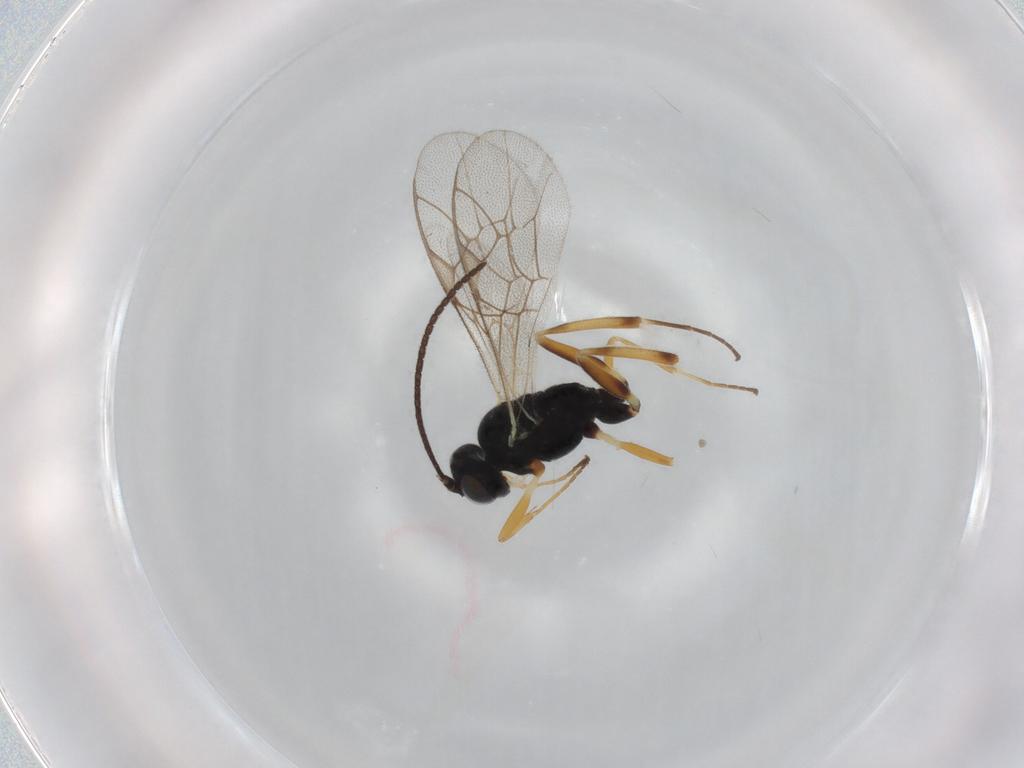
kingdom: Animalia
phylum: Arthropoda
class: Insecta
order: Hymenoptera
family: Ichneumonidae
